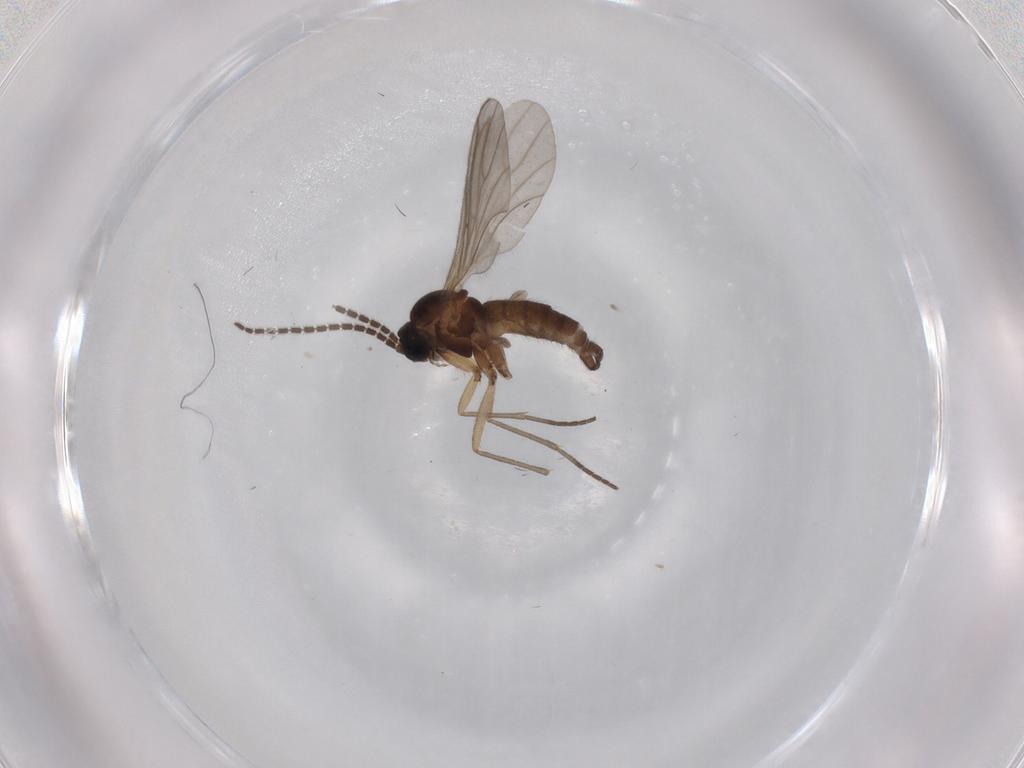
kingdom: Animalia
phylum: Arthropoda
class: Insecta
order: Diptera
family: Sciaridae
